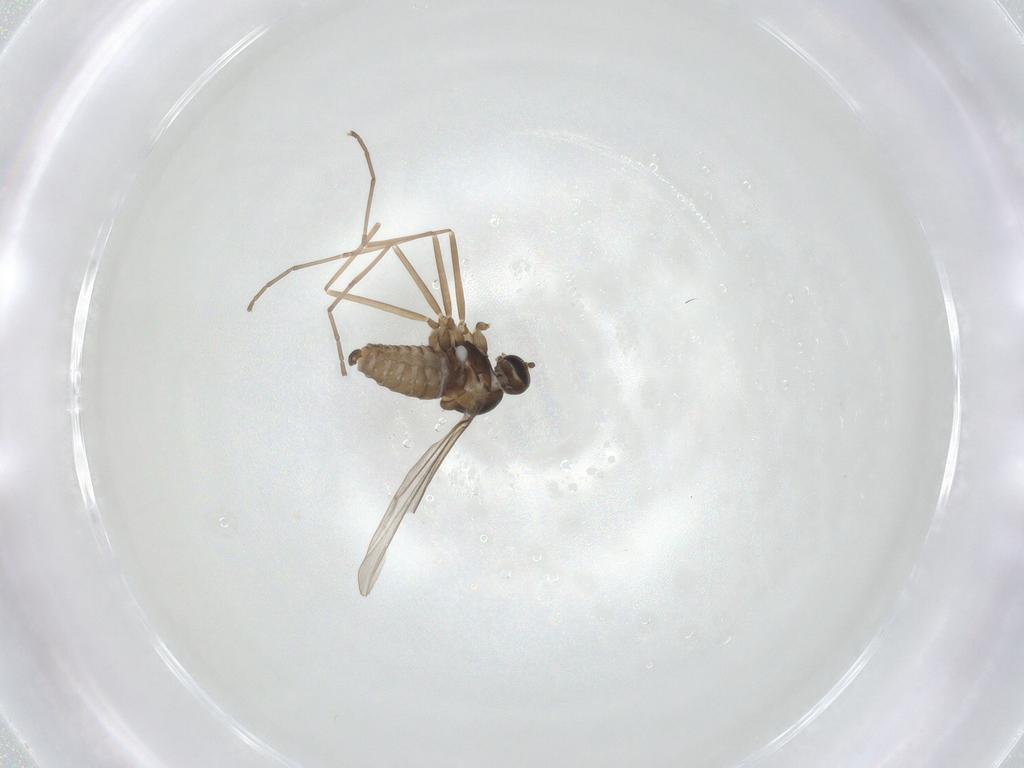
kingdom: Animalia
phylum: Arthropoda
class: Insecta
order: Diptera
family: Cecidomyiidae
